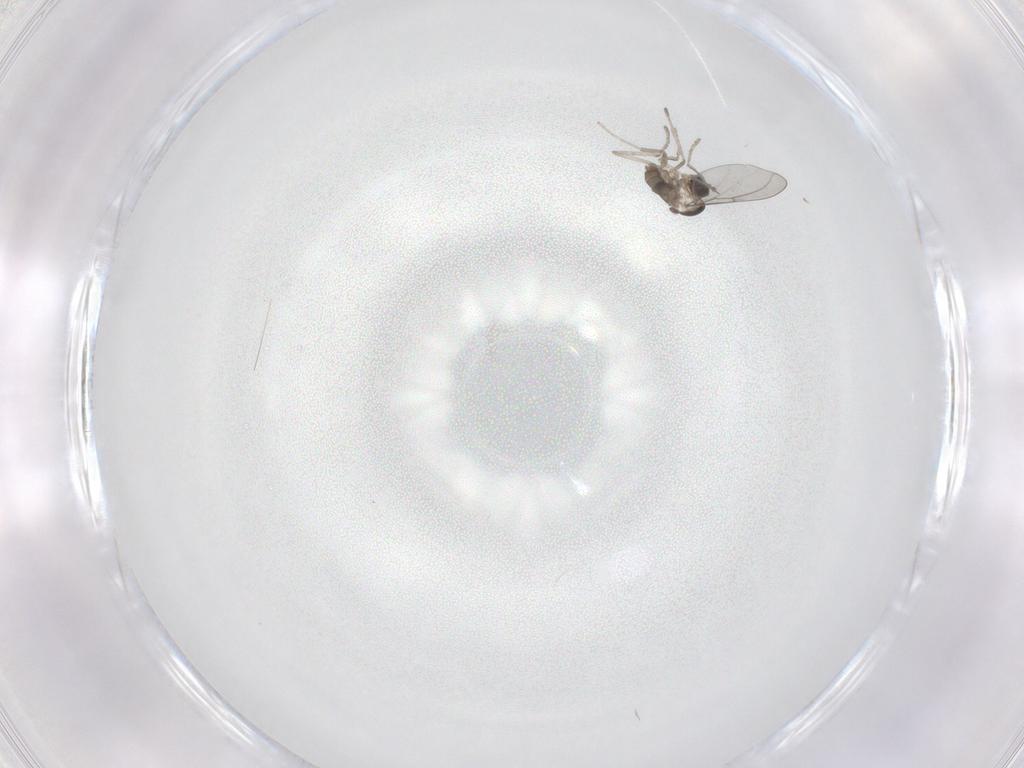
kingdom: Animalia
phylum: Arthropoda
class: Insecta
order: Diptera
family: Cecidomyiidae
